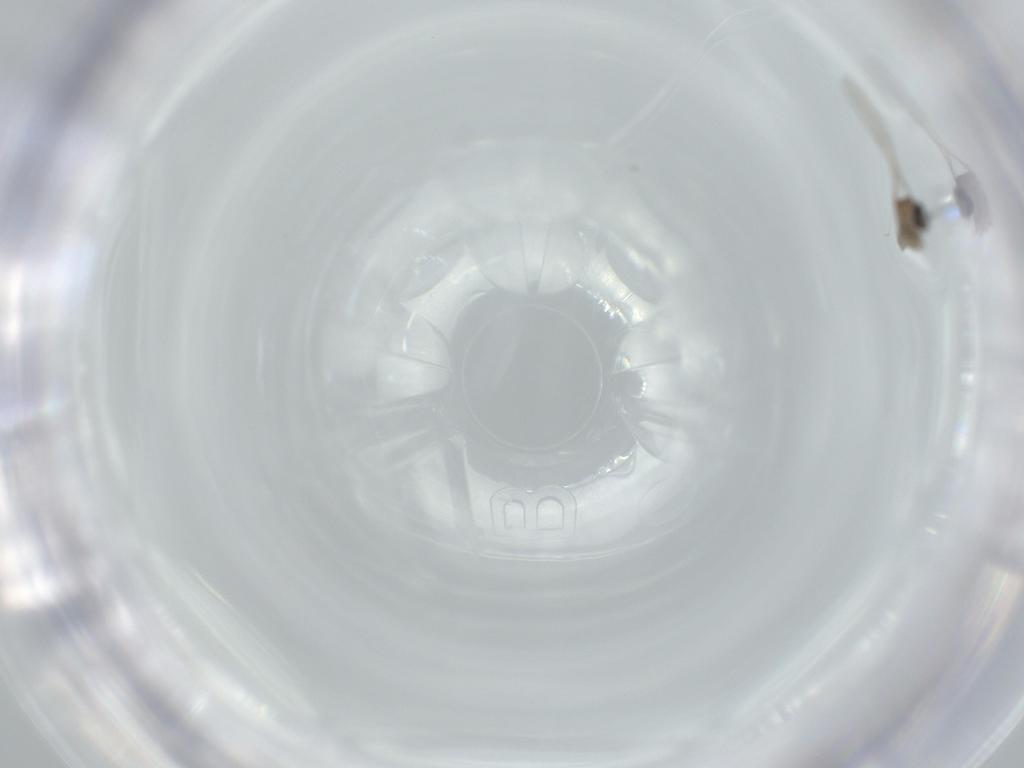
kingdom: Animalia
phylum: Arthropoda
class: Insecta
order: Diptera
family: Cecidomyiidae
